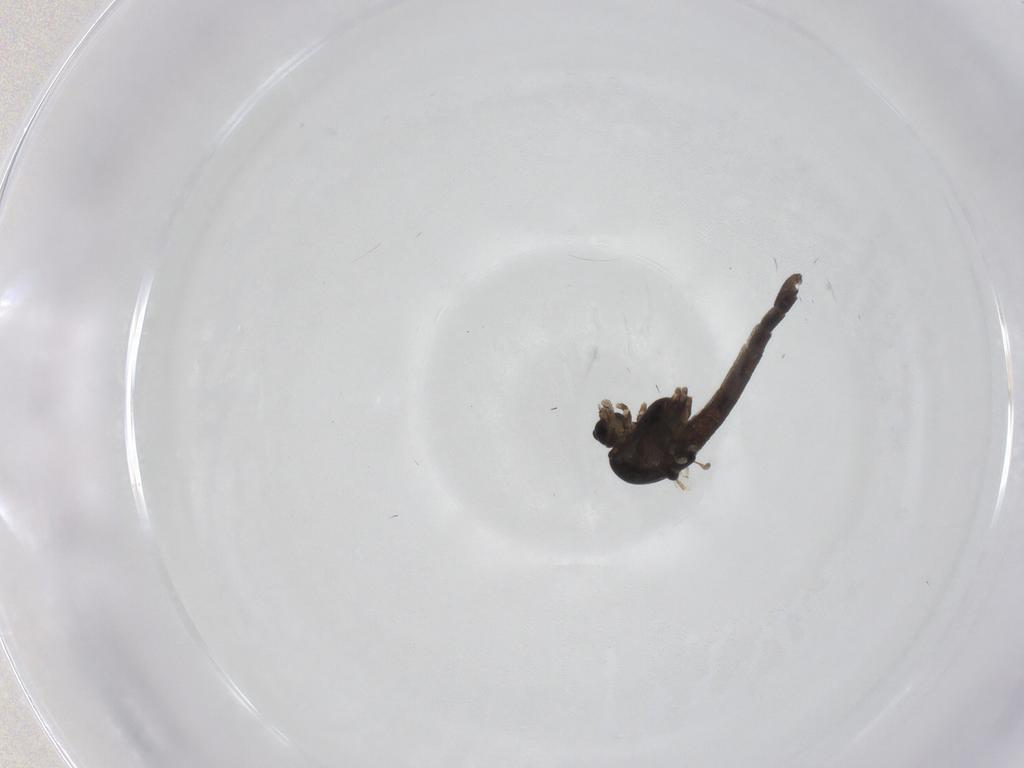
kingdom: Animalia
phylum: Arthropoda
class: Insecta
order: Diptera
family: Chironomidae
